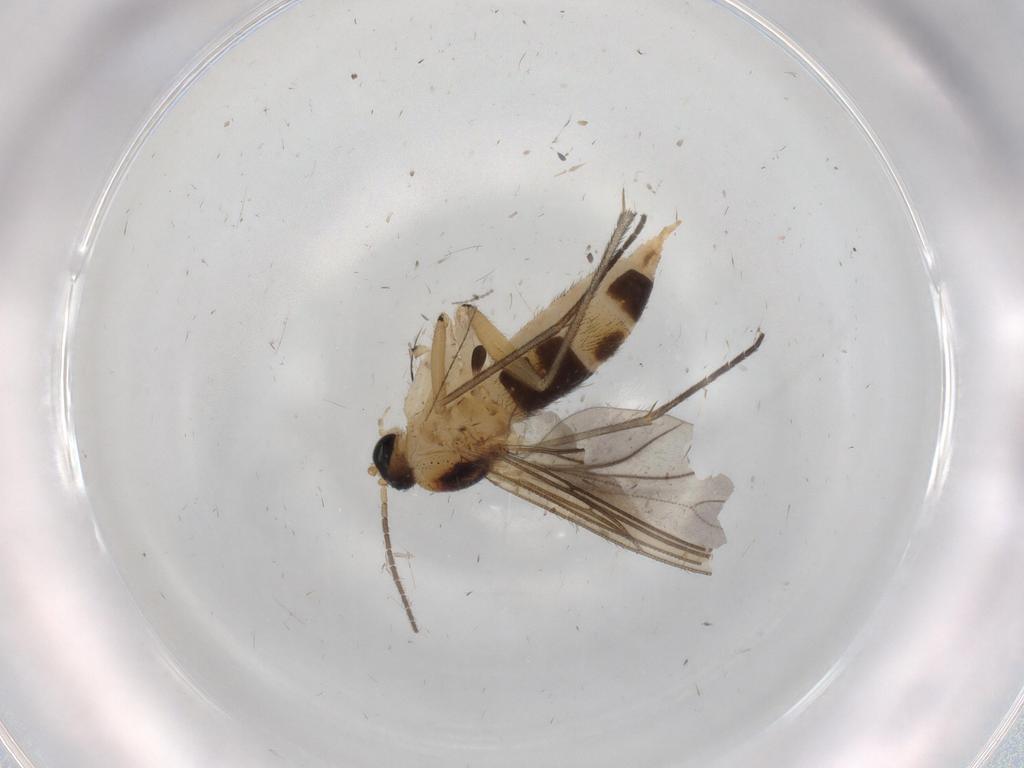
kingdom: Animalia
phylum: Arthropoda
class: Insecta
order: Diptera
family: Sciaridae
